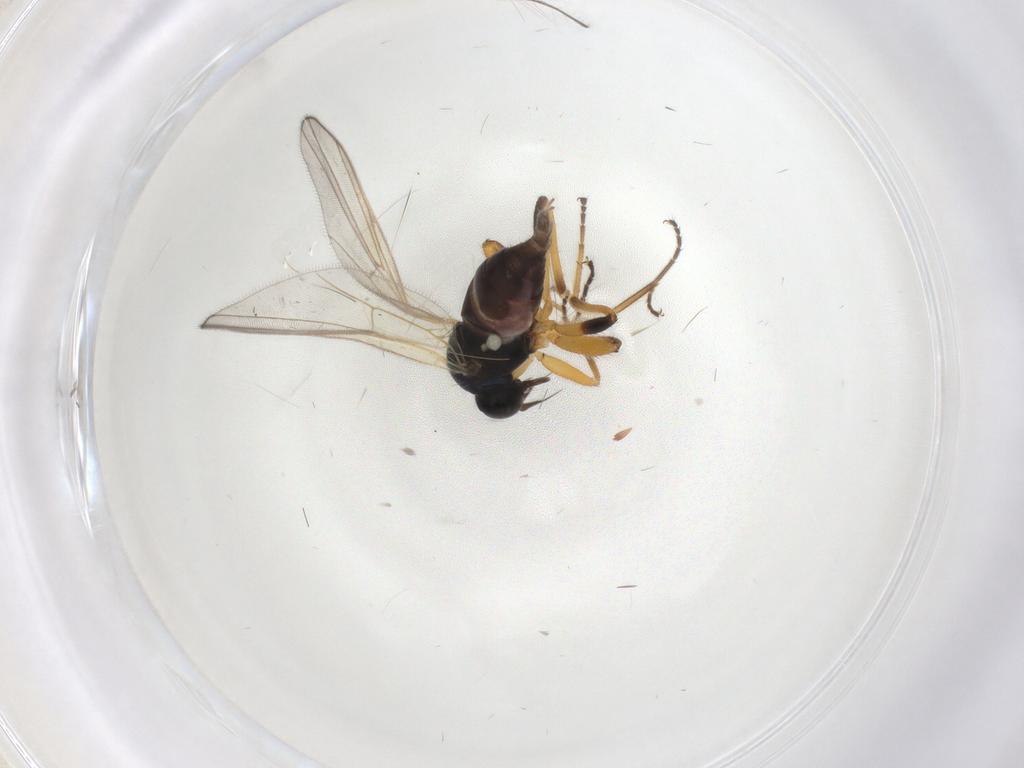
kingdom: Animalia
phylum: Arthropoda
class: Insecta
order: Diptera
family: Hybotidae
